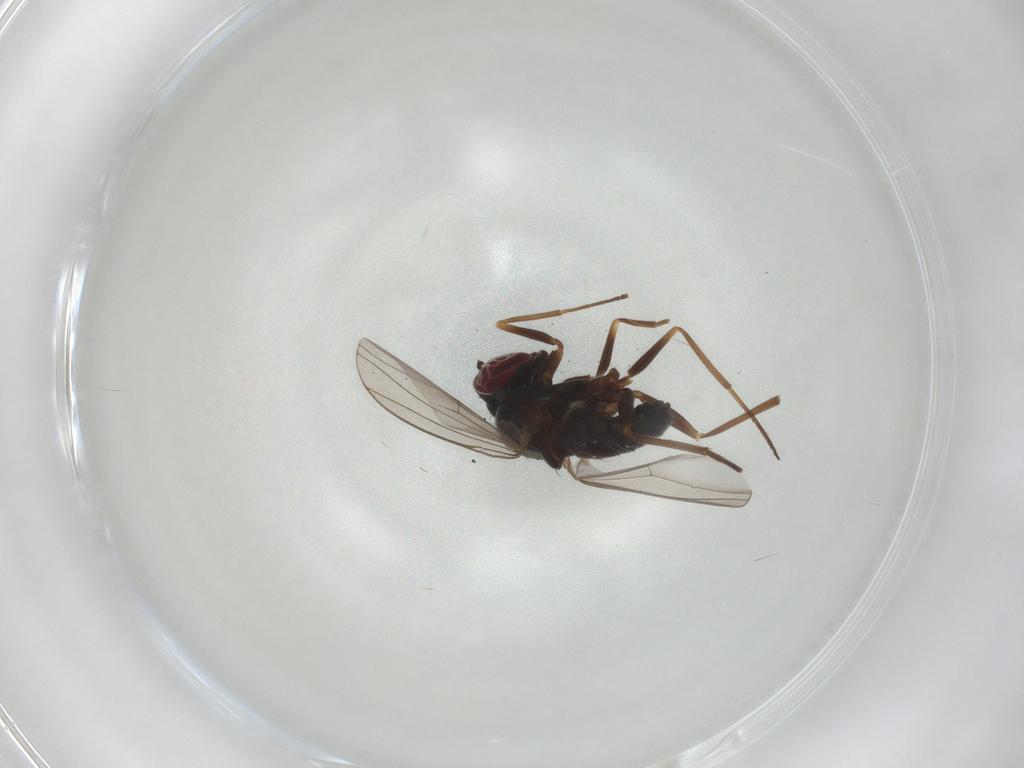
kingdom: Animalia
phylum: Arthropoda
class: Insecta
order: Diptera
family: Dolichopodidae
